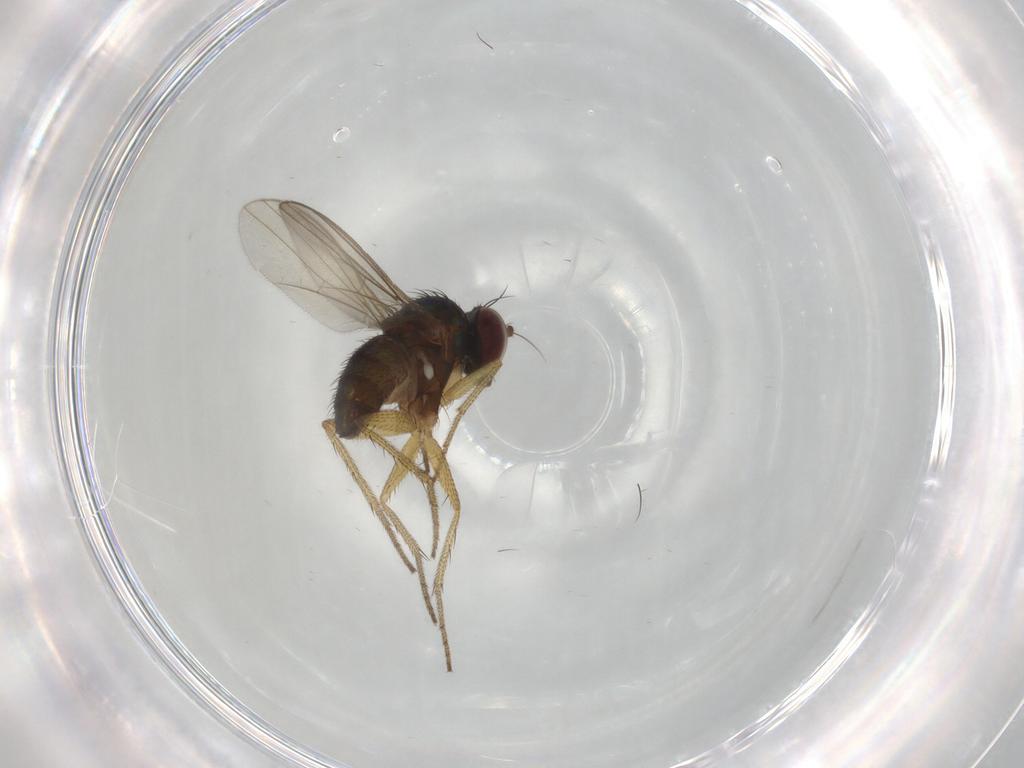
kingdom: Animalia
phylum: Arthropoda
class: Insecta
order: Diptera
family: Dolichopodidae
